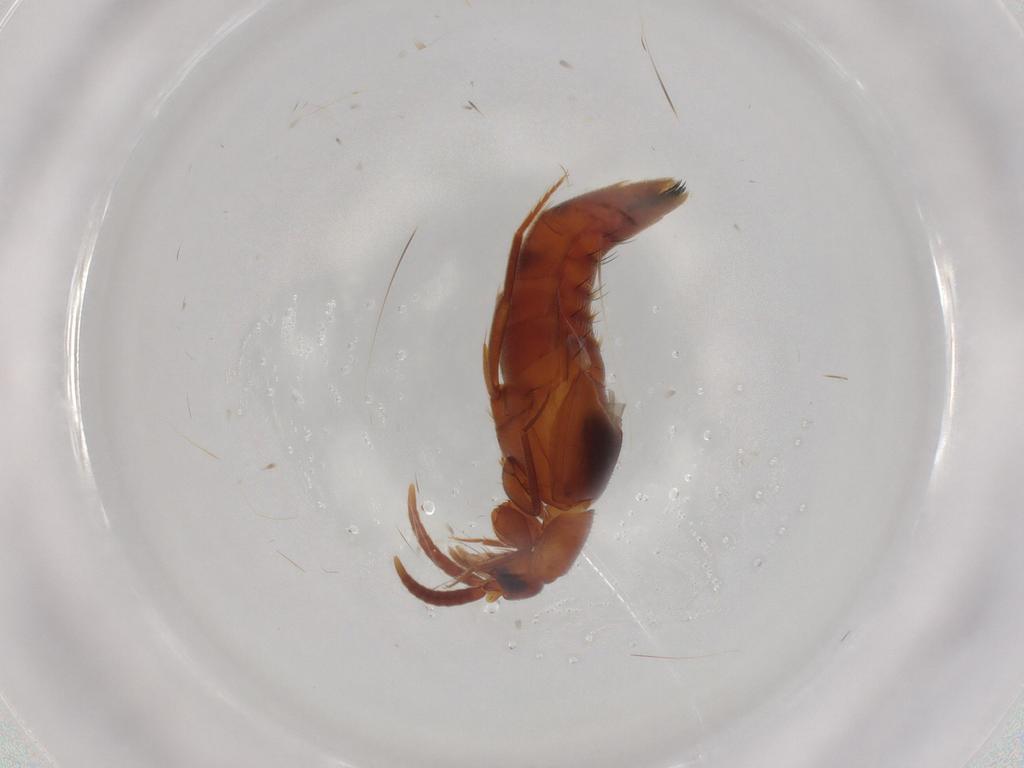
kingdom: Animalia
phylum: Arthropoda
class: Insecta
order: Coleoptera
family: Staphylinidae
